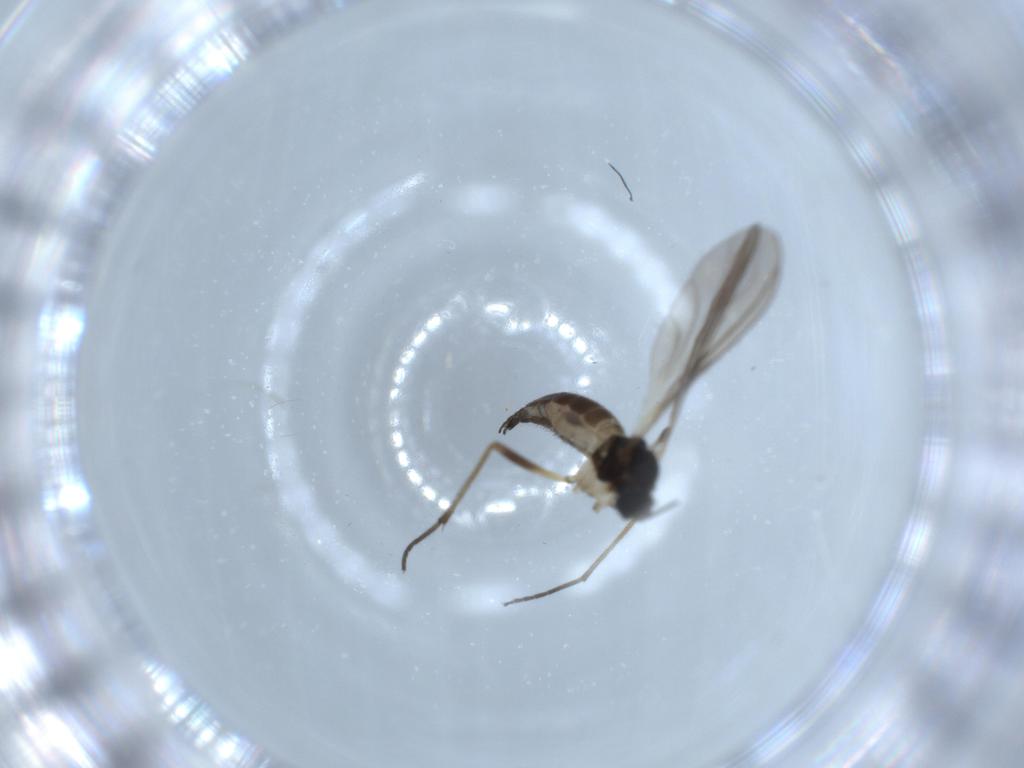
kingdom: Animalia
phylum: Arthropoda
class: Insecta
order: Diptera
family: Sciaridae
